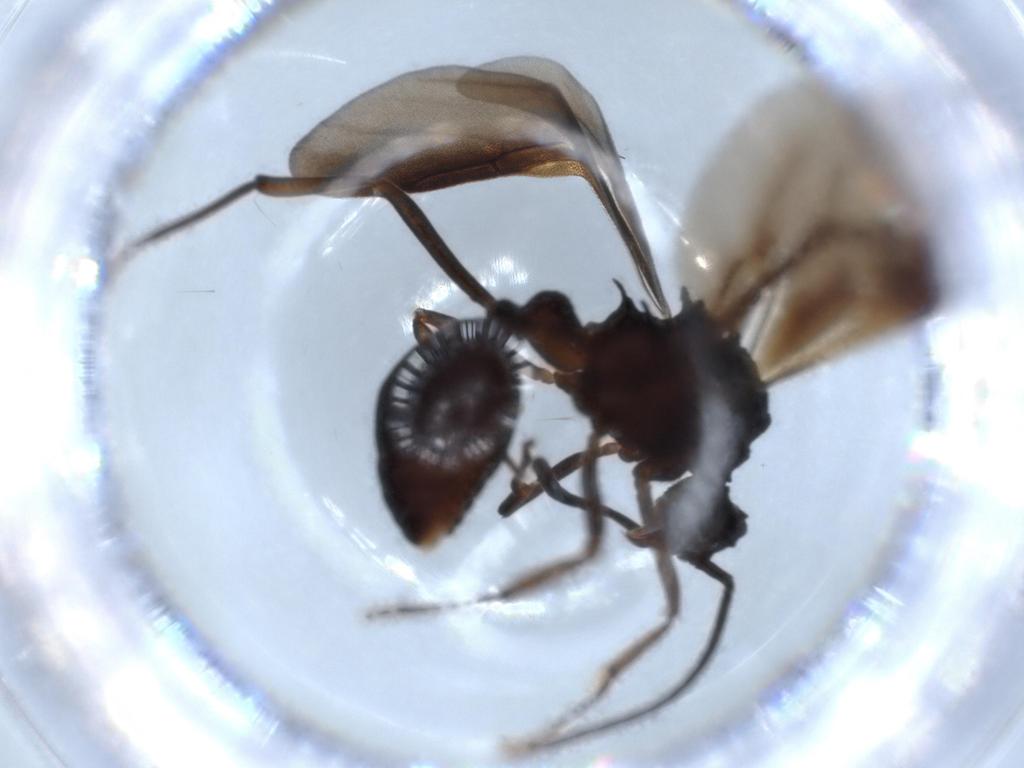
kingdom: Animalia
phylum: Arthropoda
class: Insecta
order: Hymenoptera
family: Formicidae
